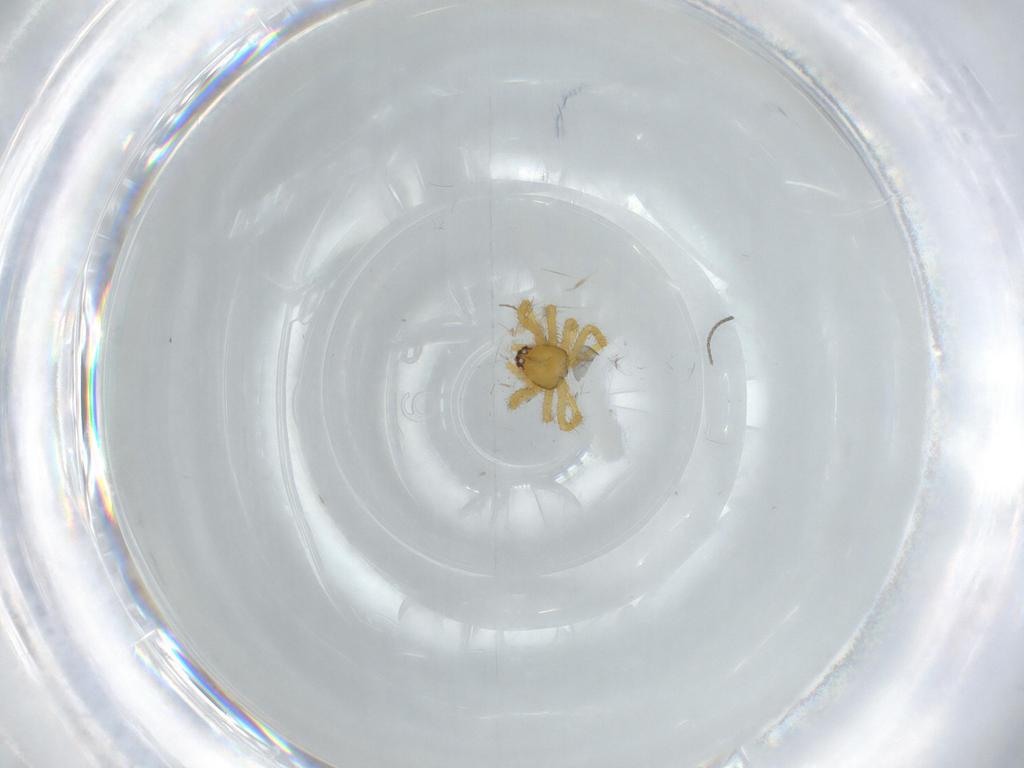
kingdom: Animalia
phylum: Arthropoda
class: Arachnida
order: Araneae
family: Theridiidae
